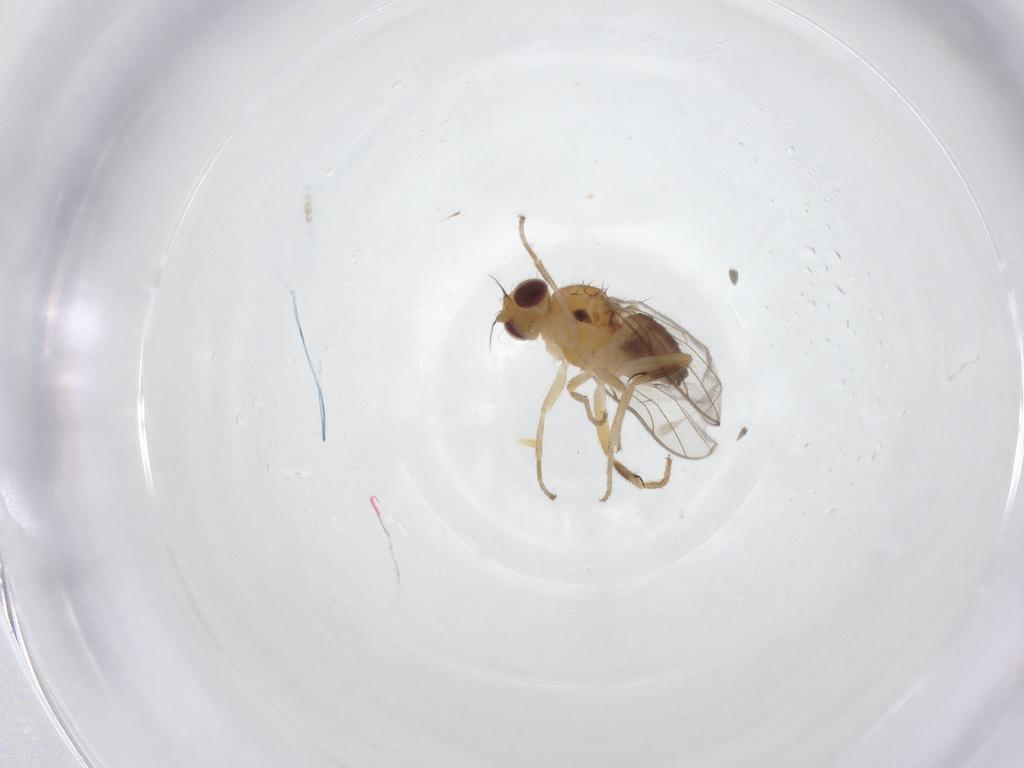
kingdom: Animalia
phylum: Arthropoda
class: Insecta
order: Diptera
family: Chloropidae
